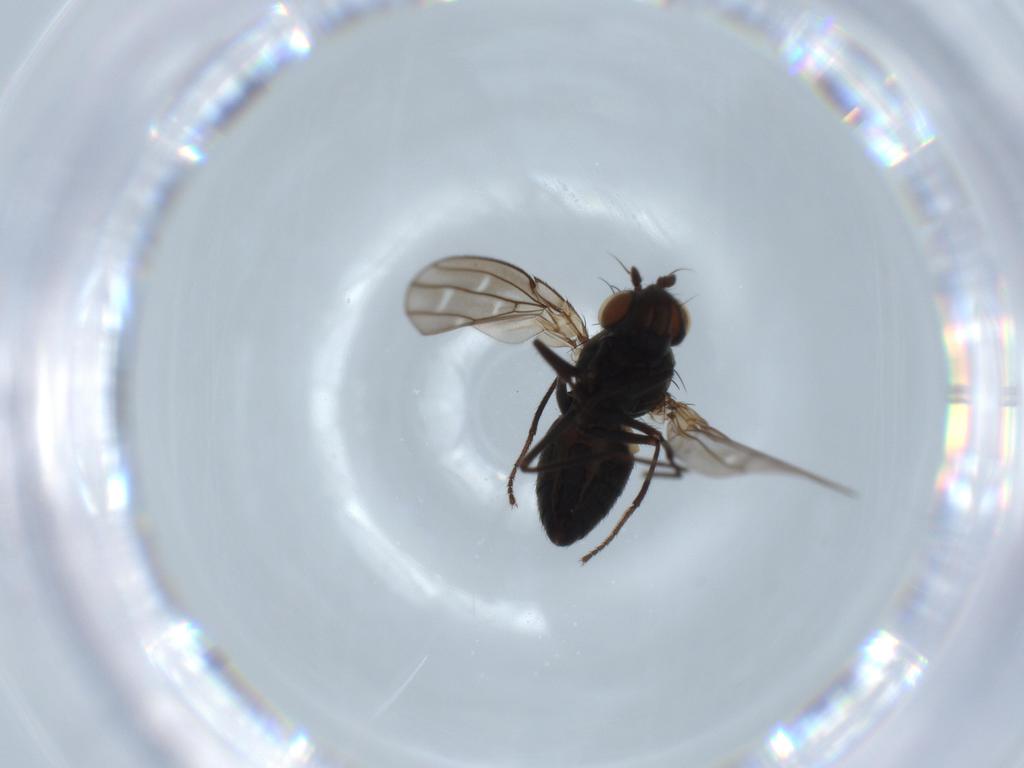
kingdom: Animalia
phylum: Arthropoda
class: Insecta
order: Diptera
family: Ephydridae
